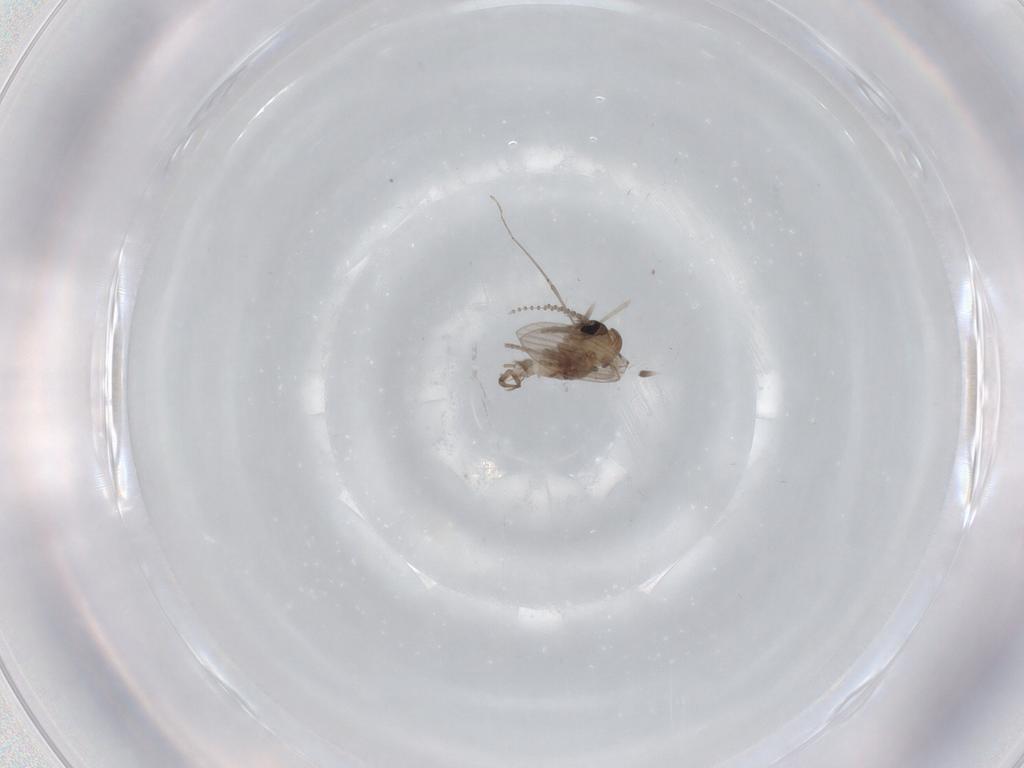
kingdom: Animalia
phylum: Arthropoda
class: Insecta
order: Diptera
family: Psychodidae
